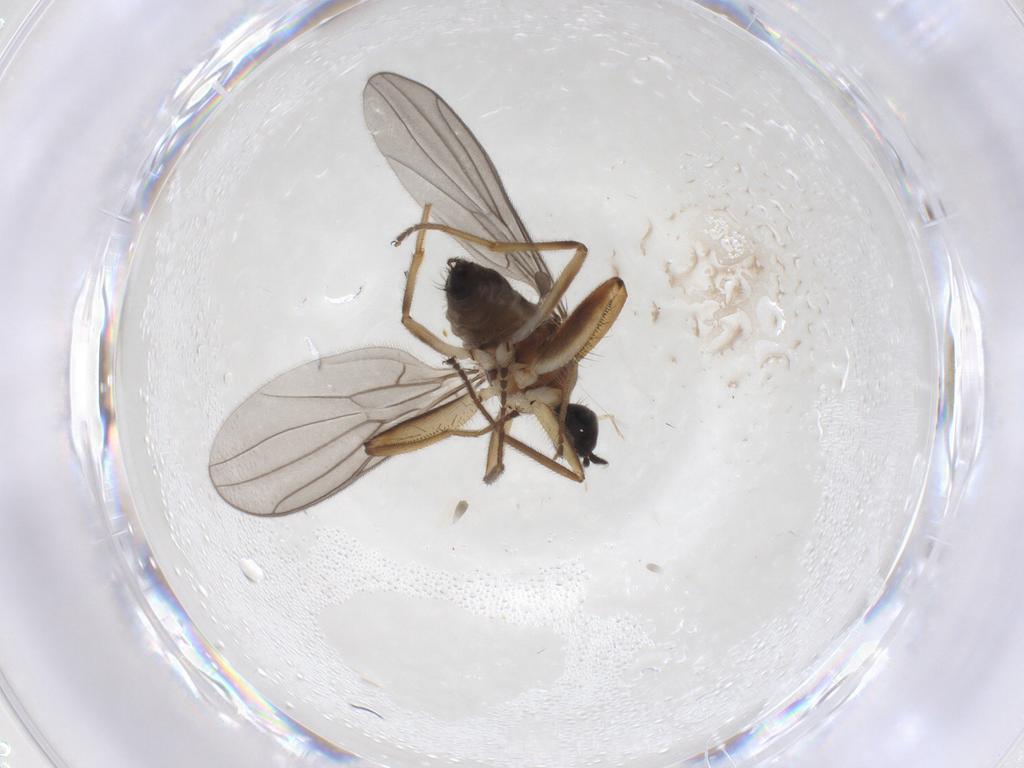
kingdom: Animalia
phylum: Arthropoda
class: Insecta
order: Diptera
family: Hybotidae
